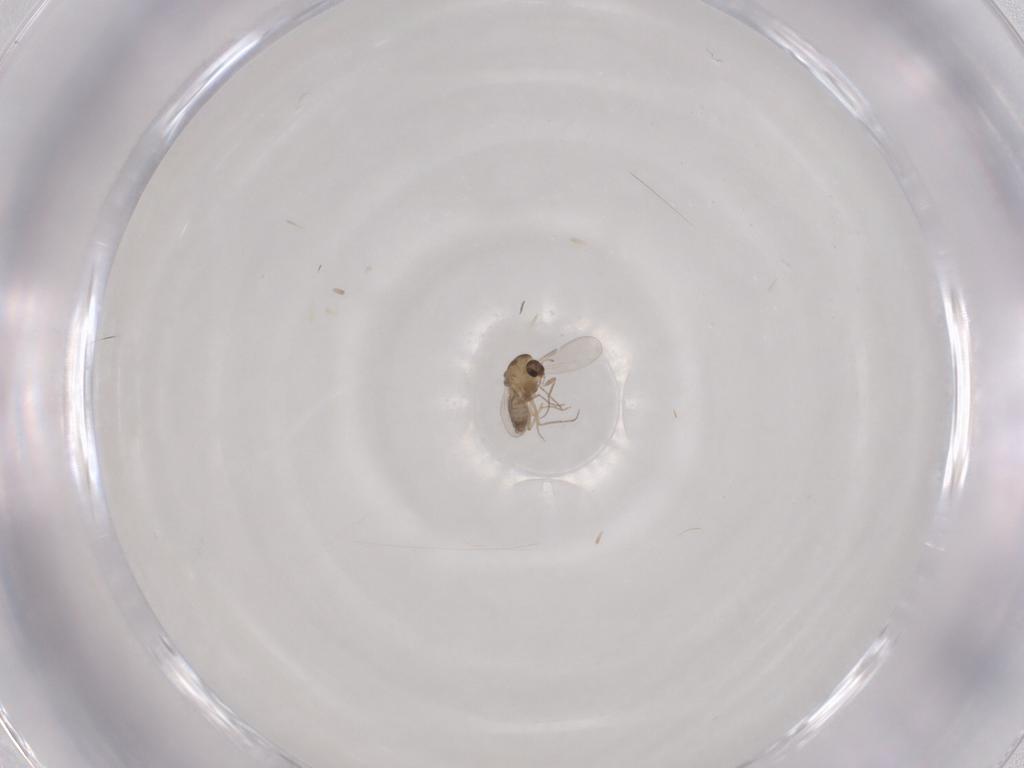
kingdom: Animalia
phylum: Arthropoda
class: Insecta
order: Diptera
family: Chironomidae
